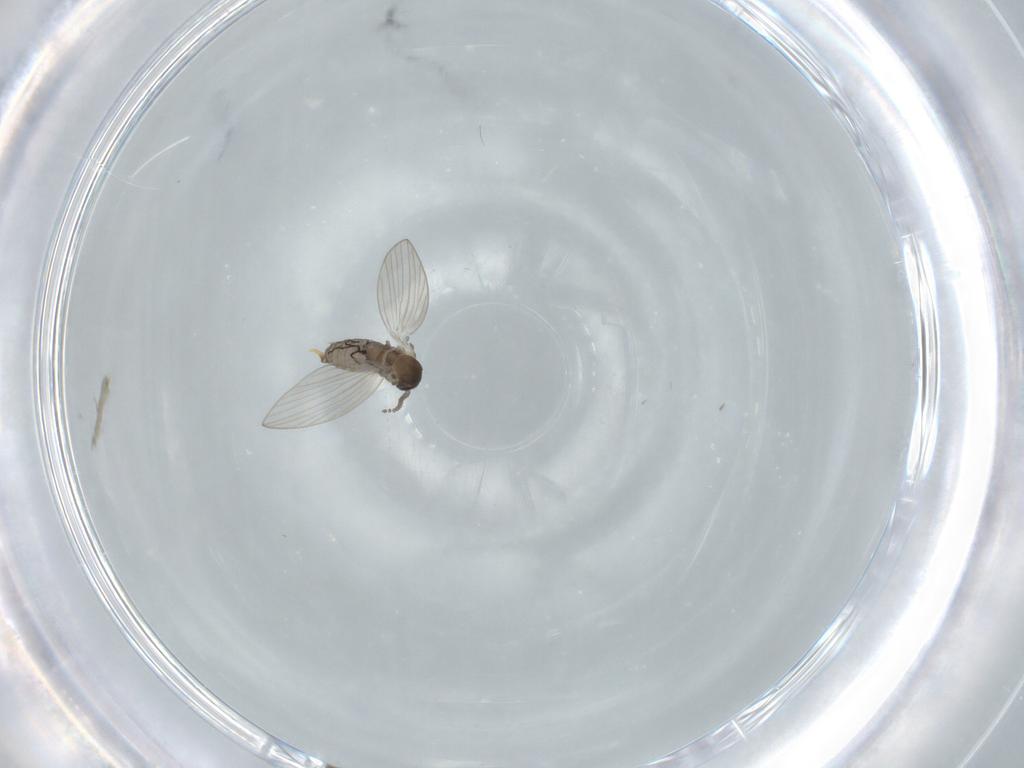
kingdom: Animalia
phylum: Arthropoda
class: Insecta
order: Diptera
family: Psychodidae
